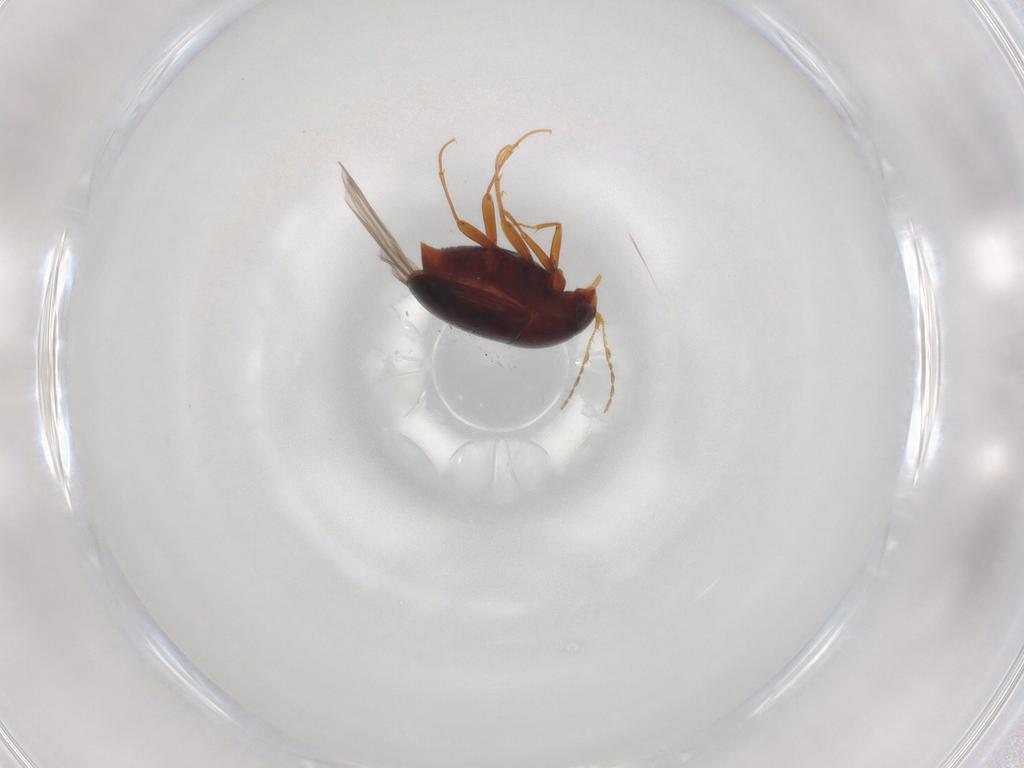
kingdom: Animalia
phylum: Arthropoda
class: Insecta
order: Coleoptera
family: Staphylinidae
